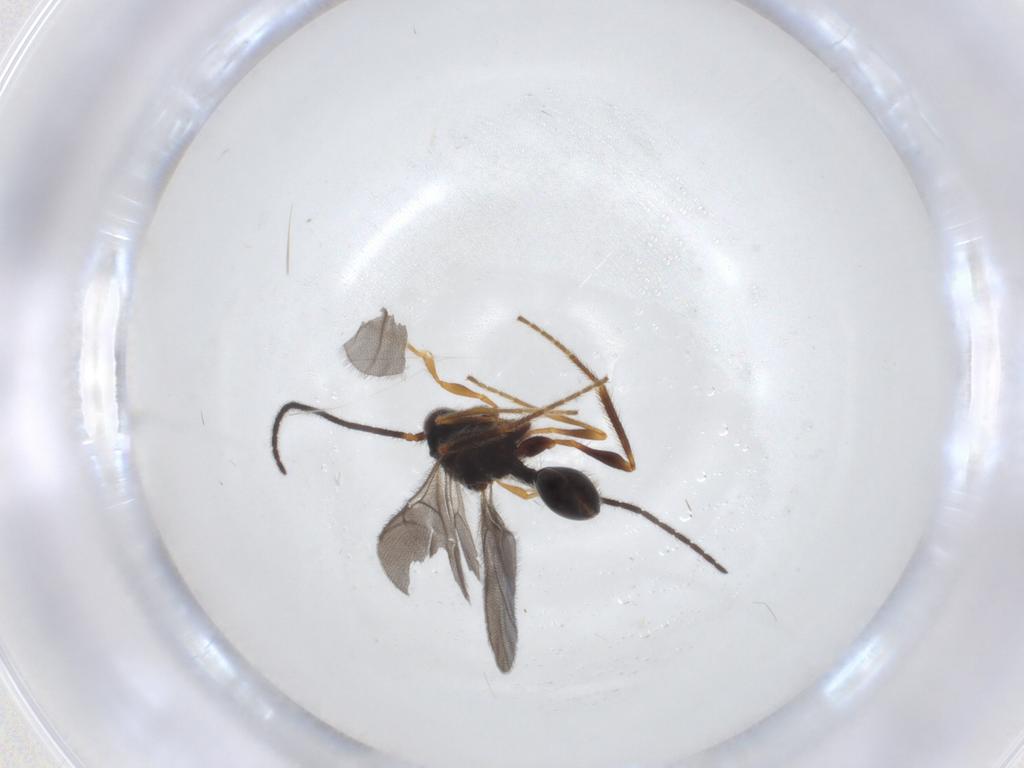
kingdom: Animalia
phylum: Arthropoda
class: Insecta
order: Hymenoptera
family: Diapriidae
